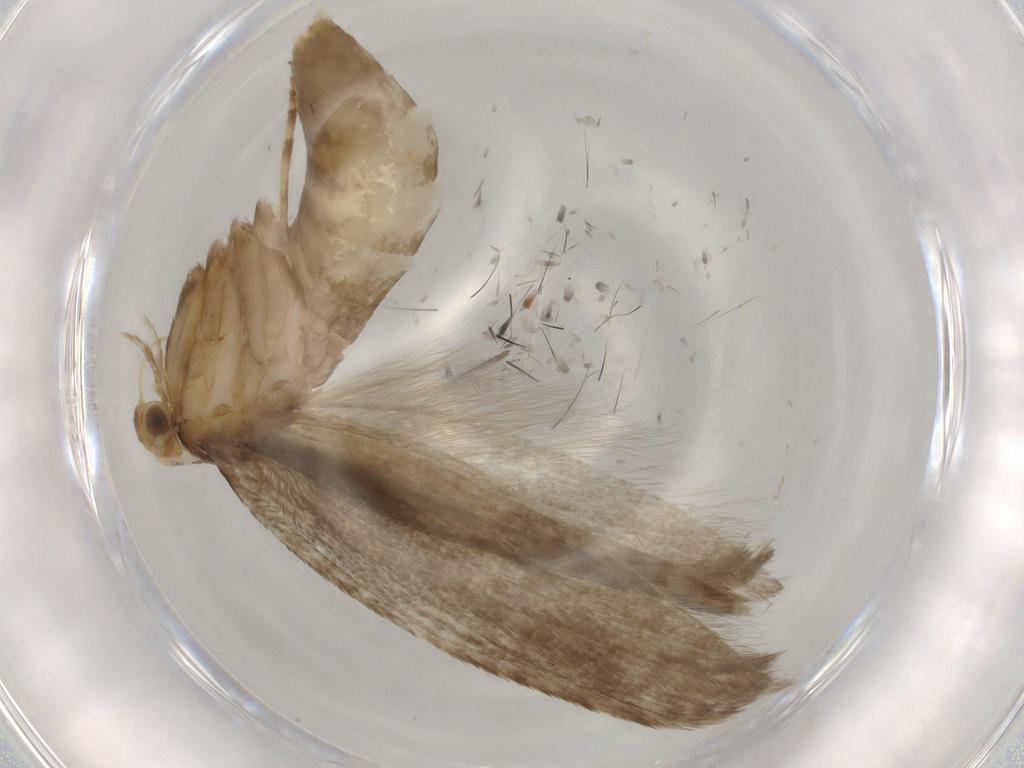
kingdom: Animalia
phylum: Arthropoda
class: Insecta
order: Lepidoptera
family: Argyresthiidae
